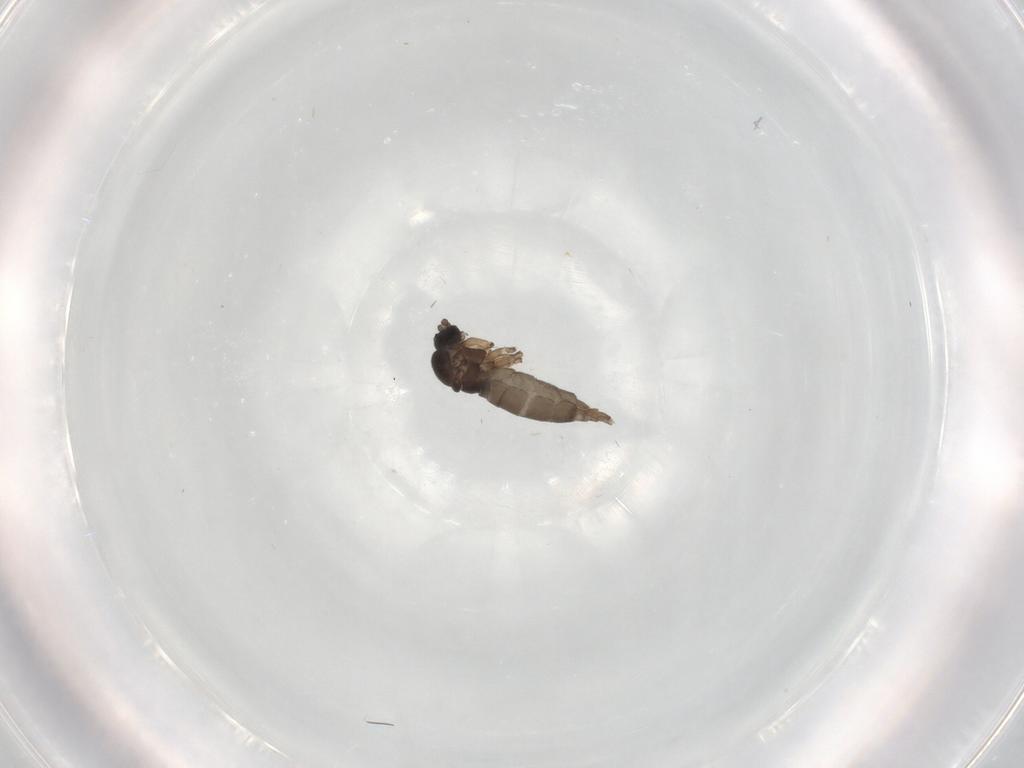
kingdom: Animalia
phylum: Arthropoda
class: Insecta
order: Diptera
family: Sciaridae
